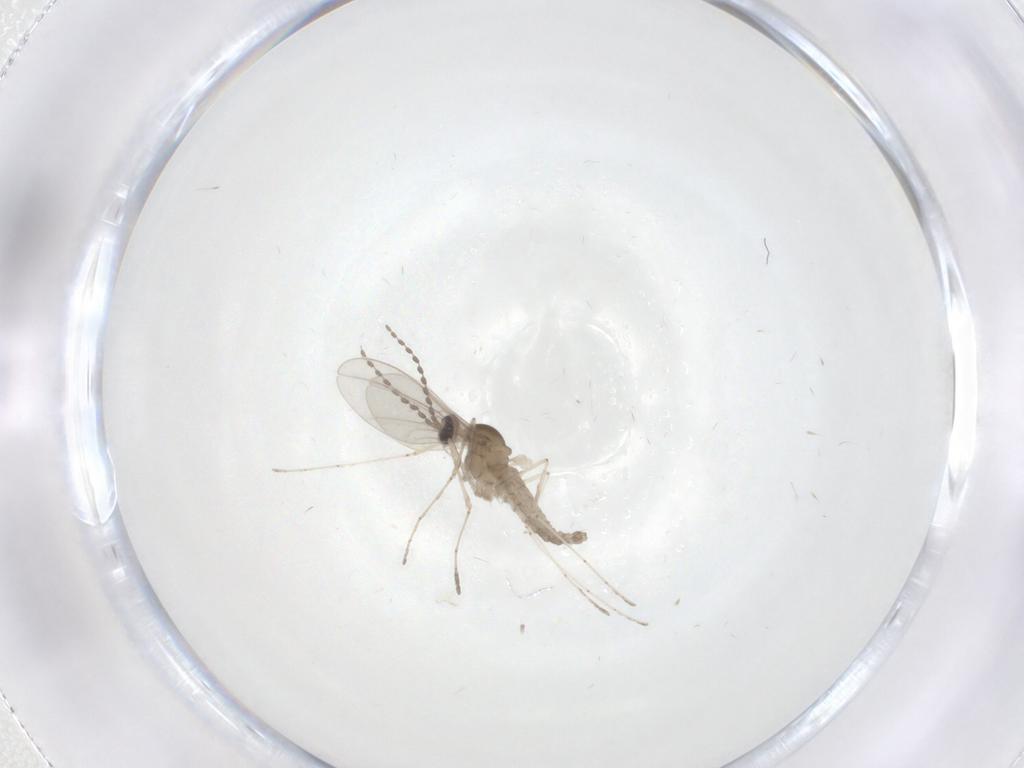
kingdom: Animalia
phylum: Arthropoda
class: Insecta
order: Diptera
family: Cecidomyiidae
